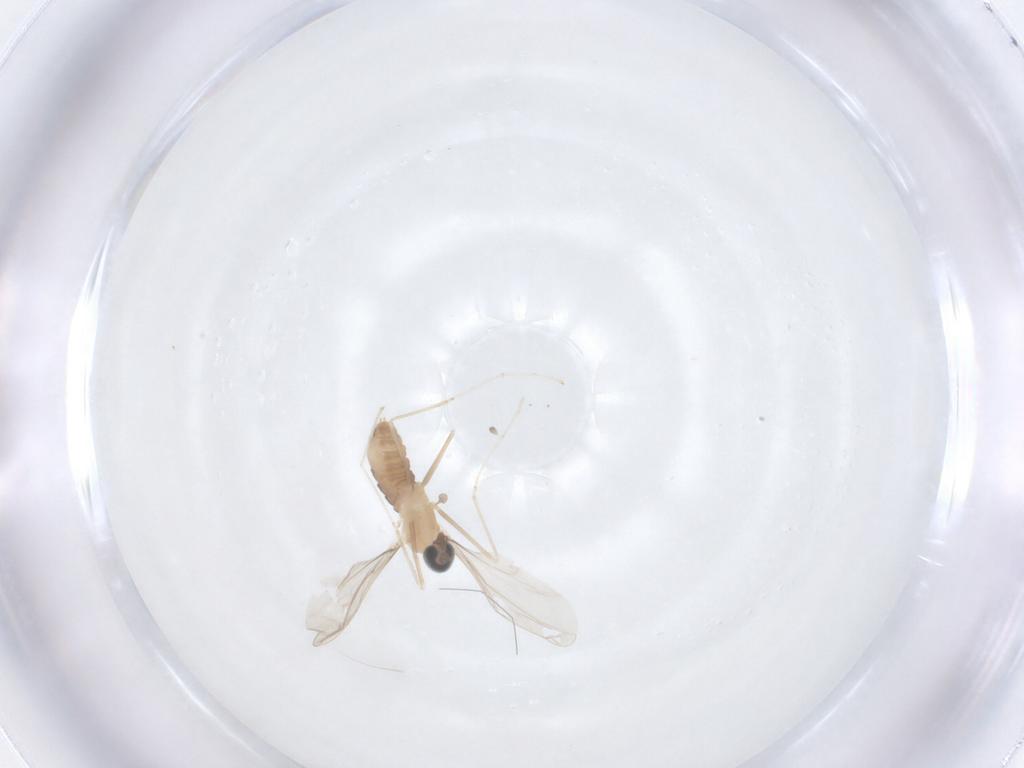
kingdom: Animalia
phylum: Arthropoda
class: Insecta
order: Diptera
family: Cecidomyiidae
